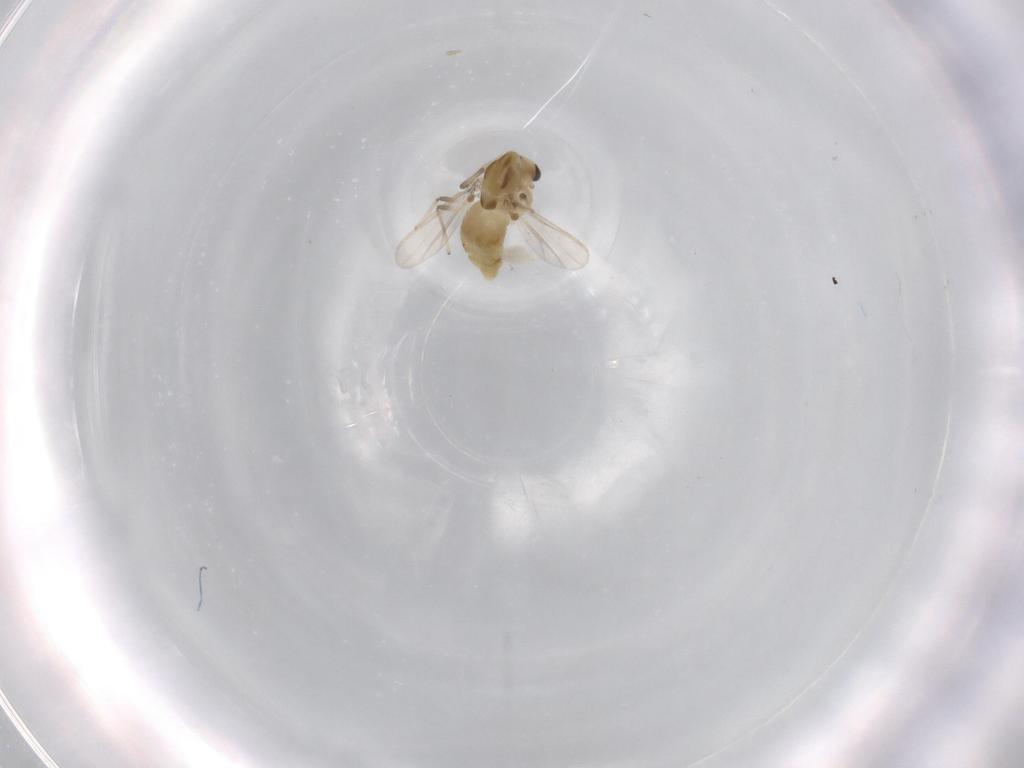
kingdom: Animalia
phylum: Arthropoda
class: Insecta
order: Diptera
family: Chironomidae
